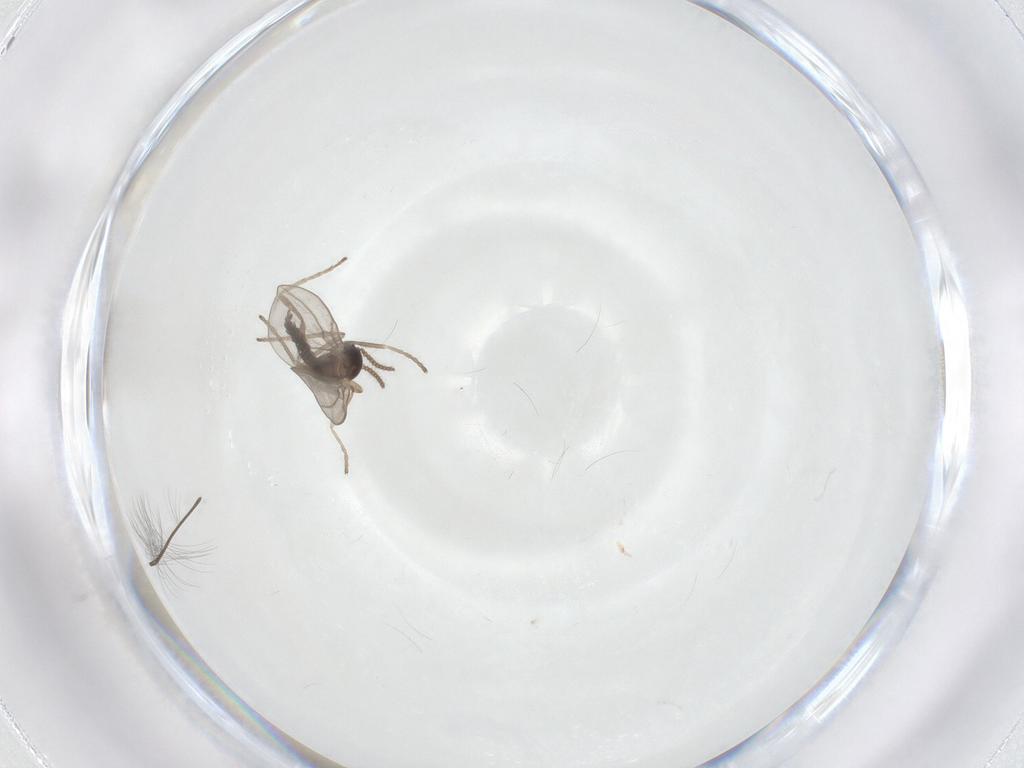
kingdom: Animalia
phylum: Arthropoda
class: Insecta
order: Diptera
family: Cecidomyiidae
